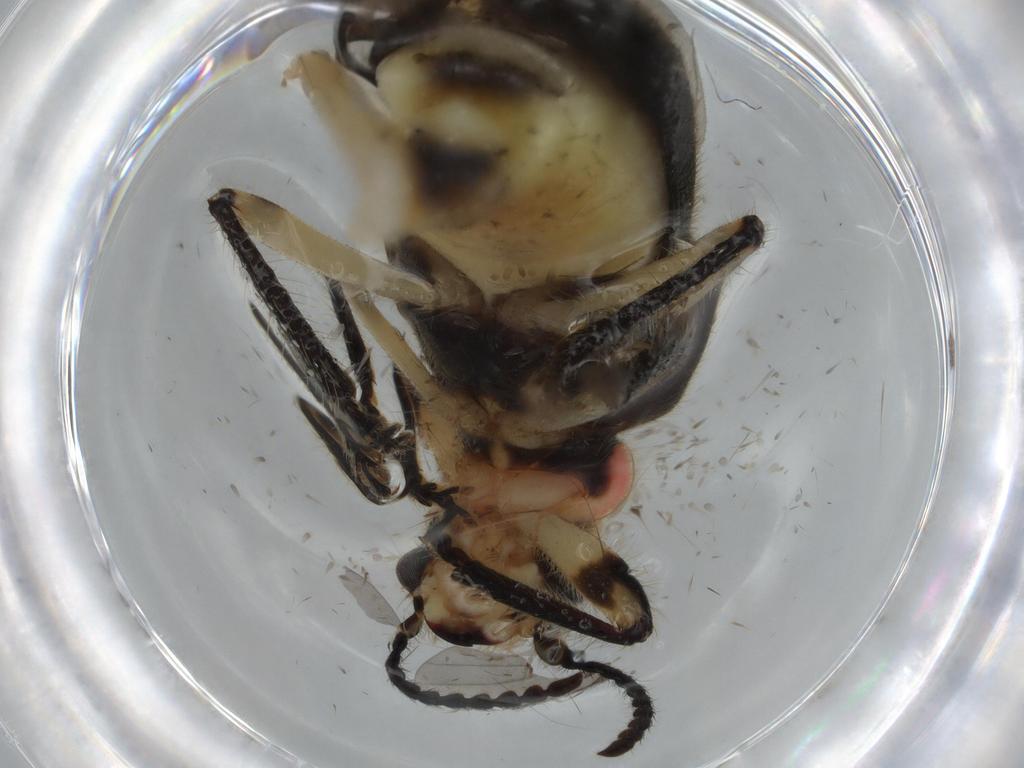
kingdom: Animalia
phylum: Arthropoda
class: Insecta
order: Coleoptera
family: Cleridae
